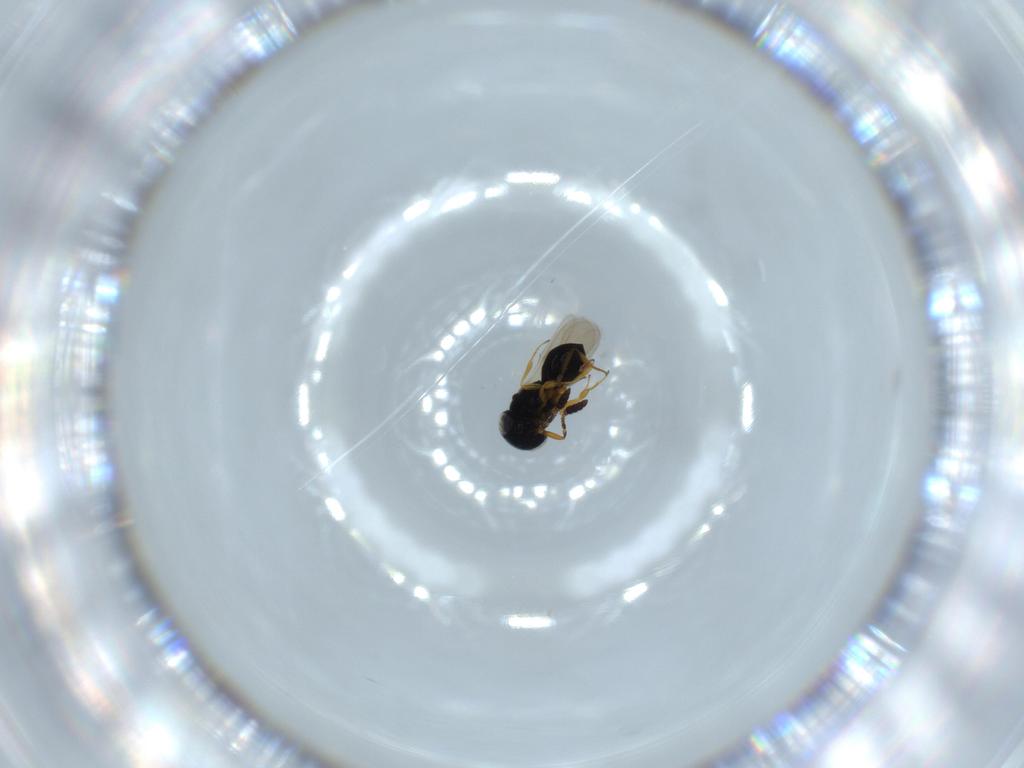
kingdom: Animalia
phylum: Arthropoda
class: Insecta
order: Hymenoptera
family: Scelionidae
